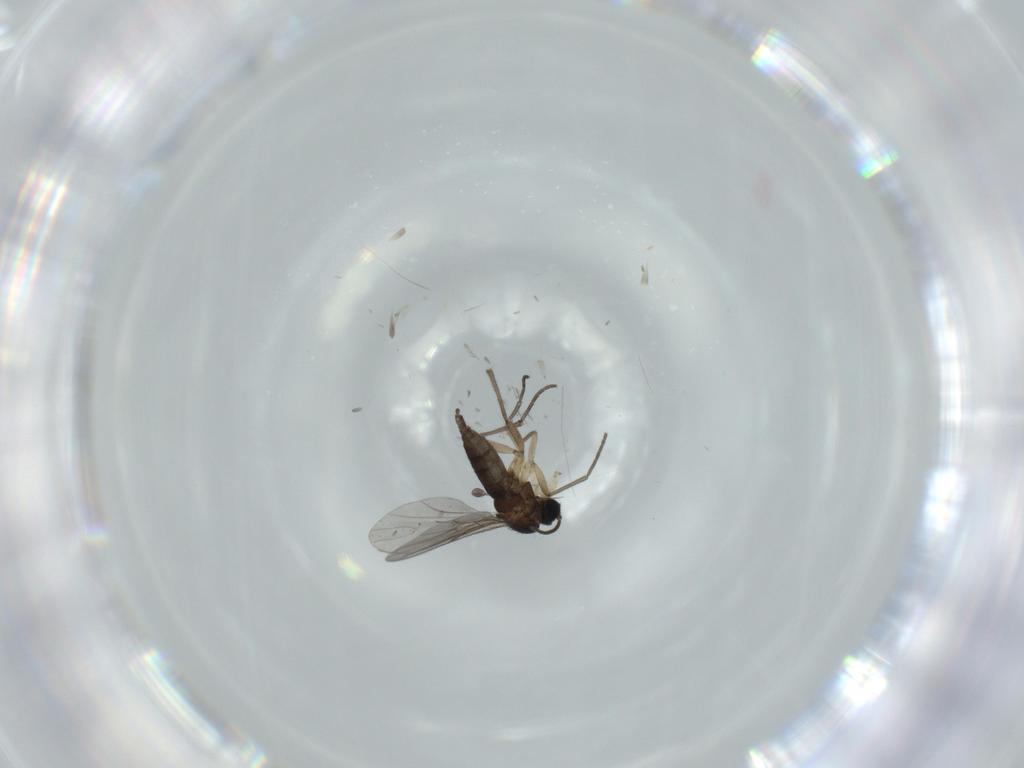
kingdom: Animalia
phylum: Arthropoda
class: Insecta
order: Diptera
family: Sciaridae
